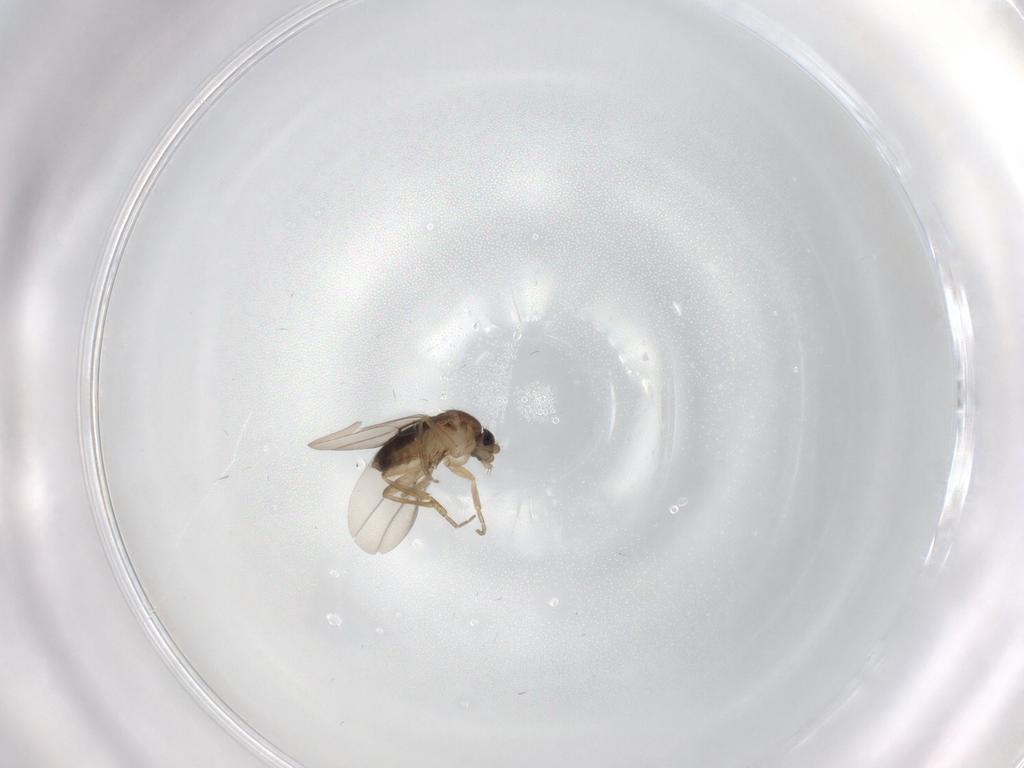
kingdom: Animalia
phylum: Arthropoda
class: Insecta
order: Diptera
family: Phoridae
